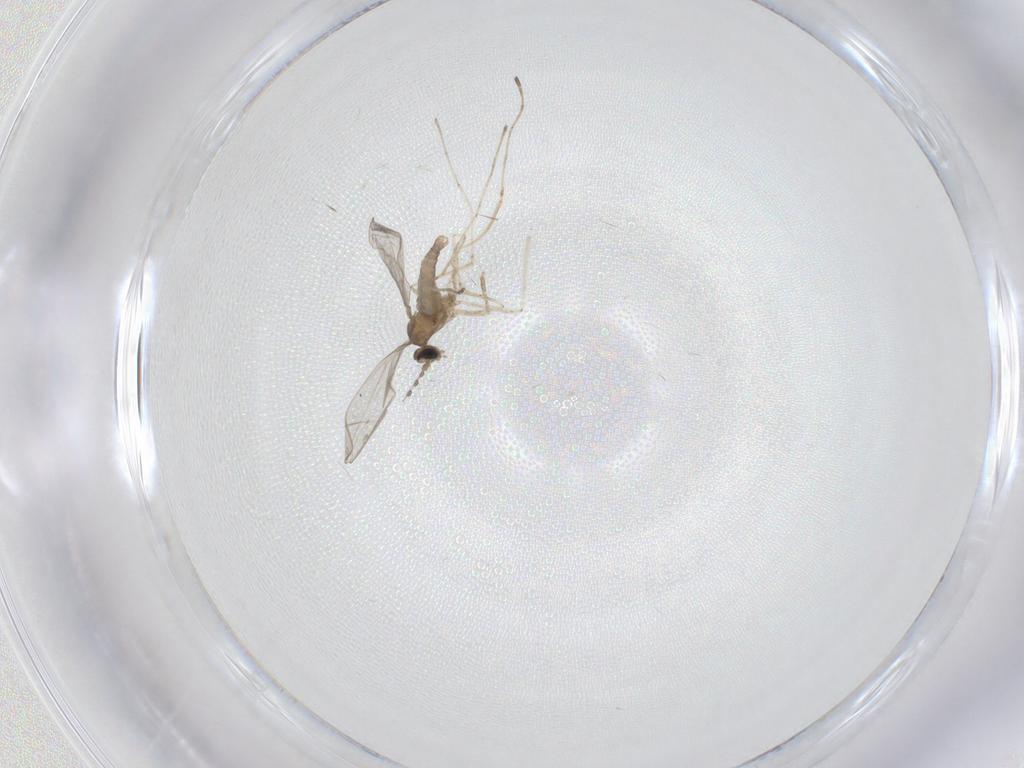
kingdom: Animalia
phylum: Arthropoda
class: Insecta
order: Diptera
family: Cecidomyiidae
